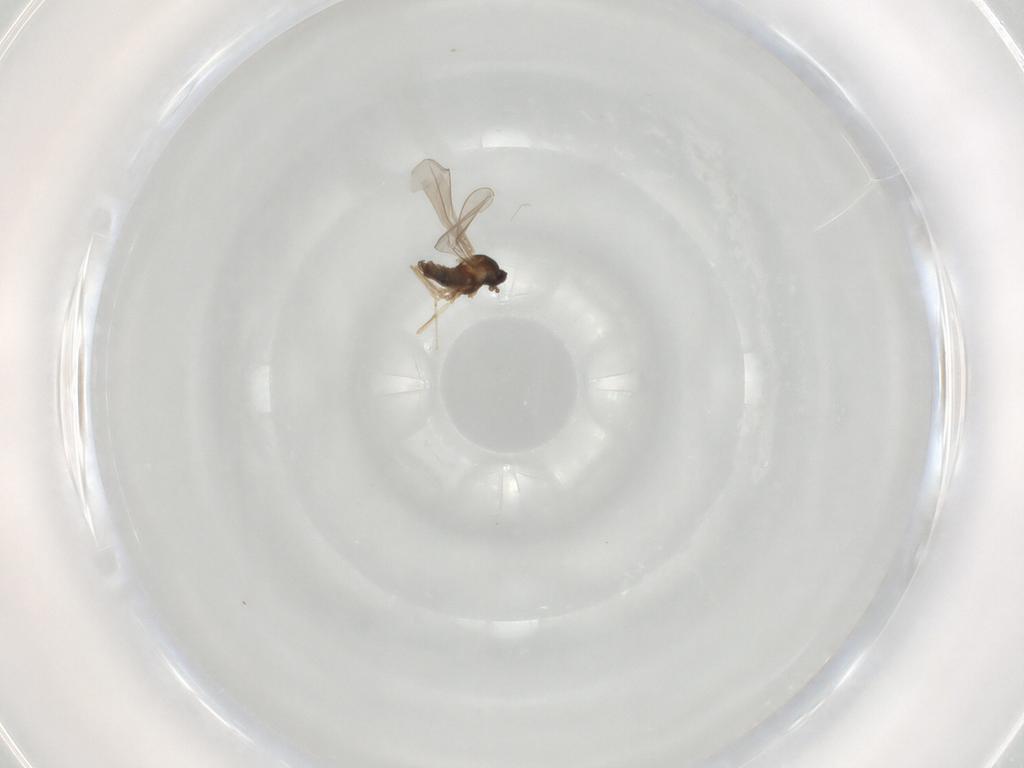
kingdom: Animalia
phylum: Arthropoda
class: Insecta
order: Diptera
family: Cecidomyiidae
